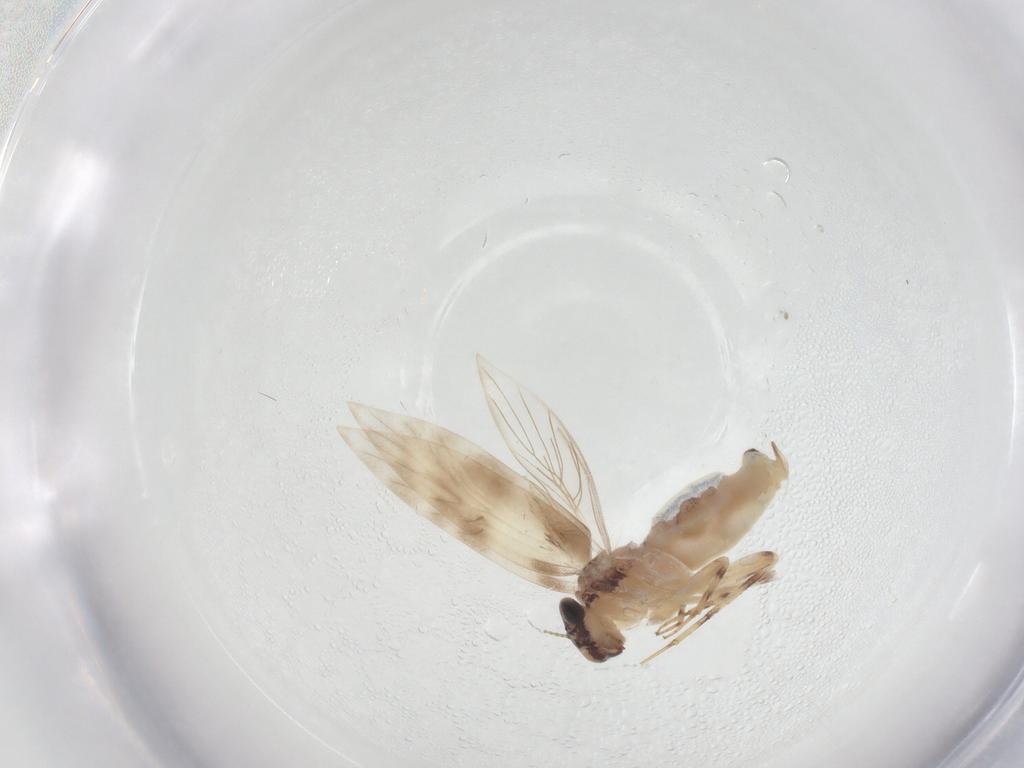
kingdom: Animalia
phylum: Arthropoda
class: Insecta
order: Psocodea
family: Lepidopsocidae
